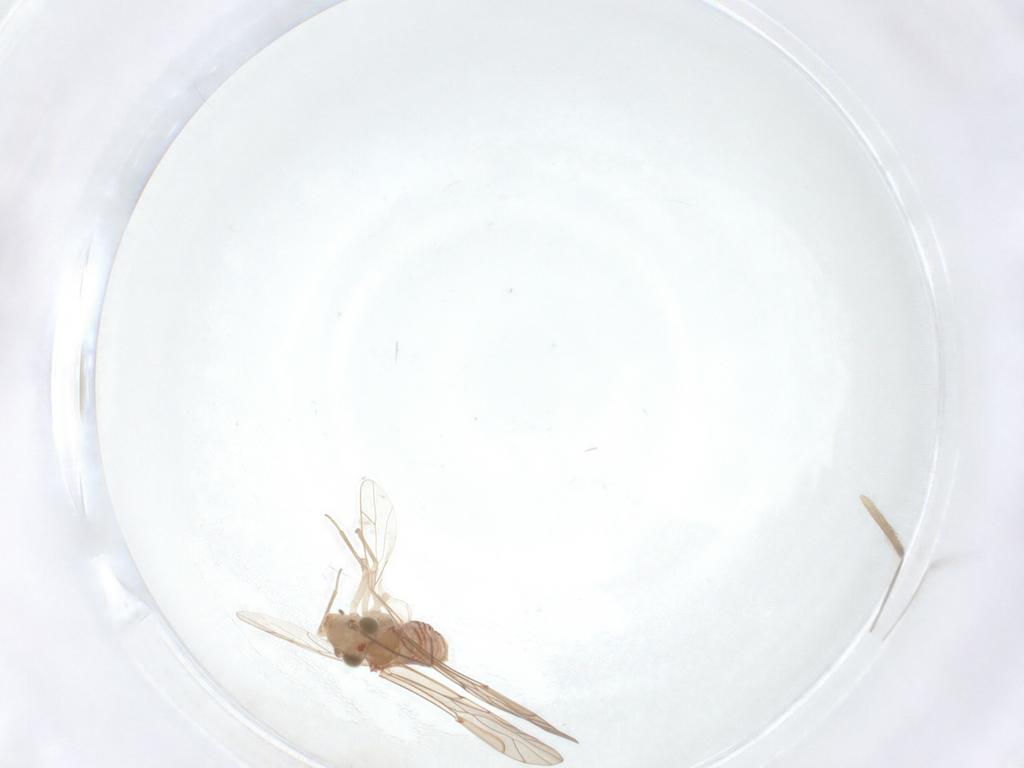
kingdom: Animalia
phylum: Arthropoda
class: Insecta
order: Psocodea
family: Lachesillidae
